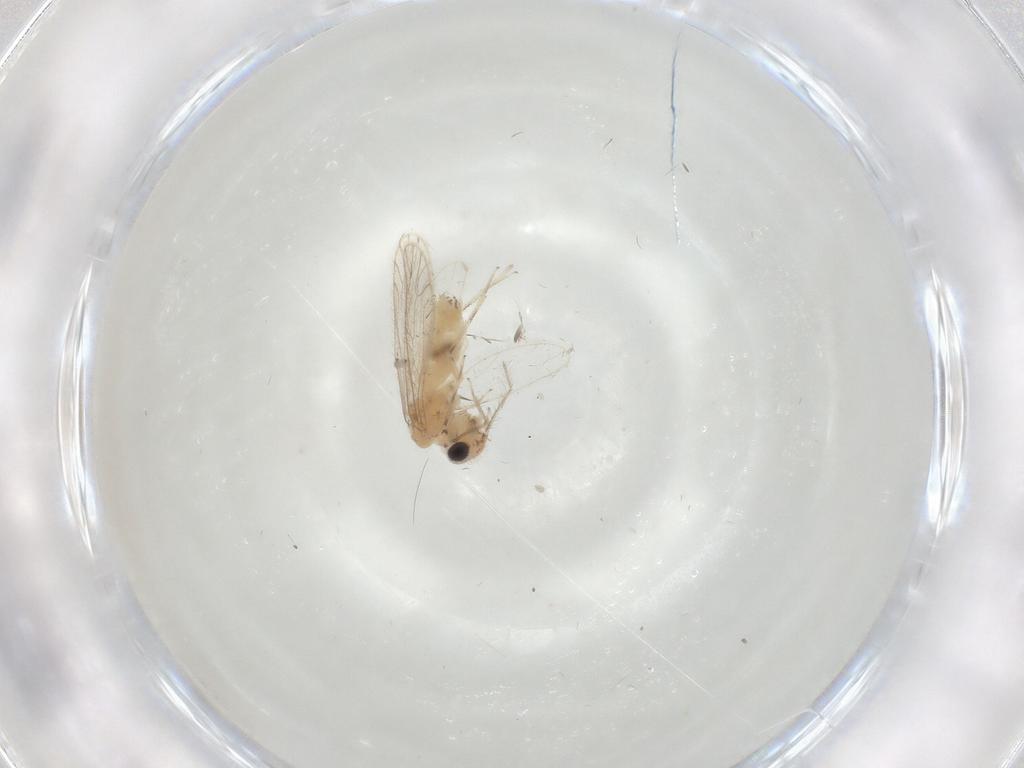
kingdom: Animalia
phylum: Arthropoda
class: Insecta
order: Psocodea
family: Caeciliusidae
